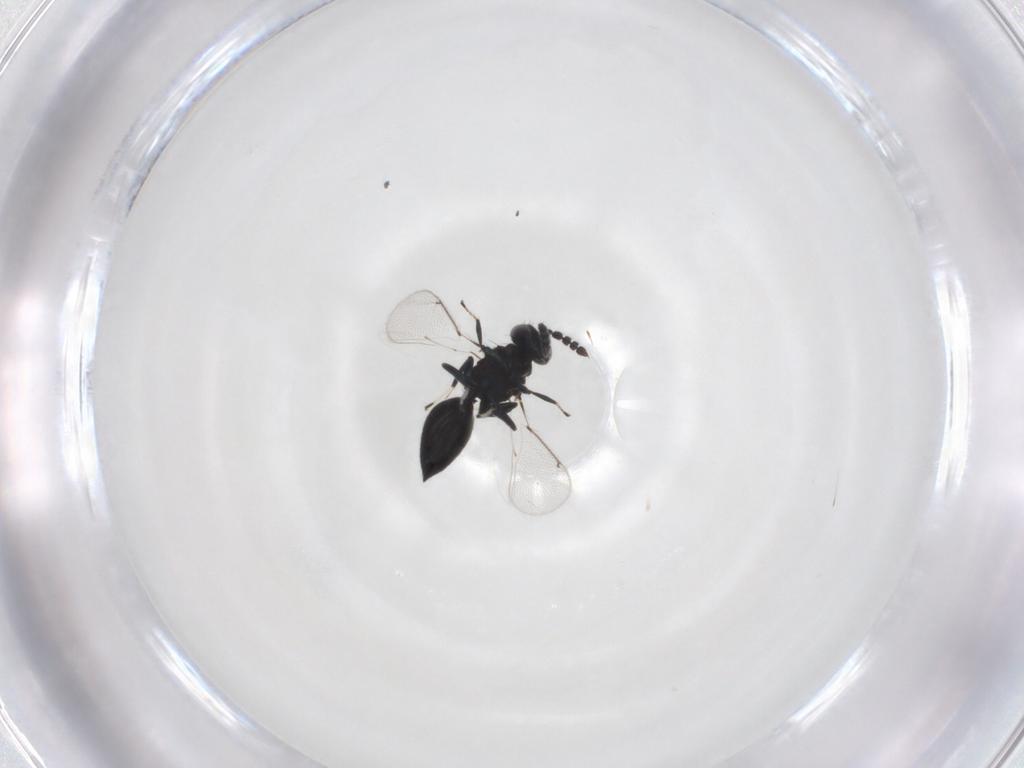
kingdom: Animalia
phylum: Arthropoda
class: Insecta
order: Hymenoptera
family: Eulophidae
